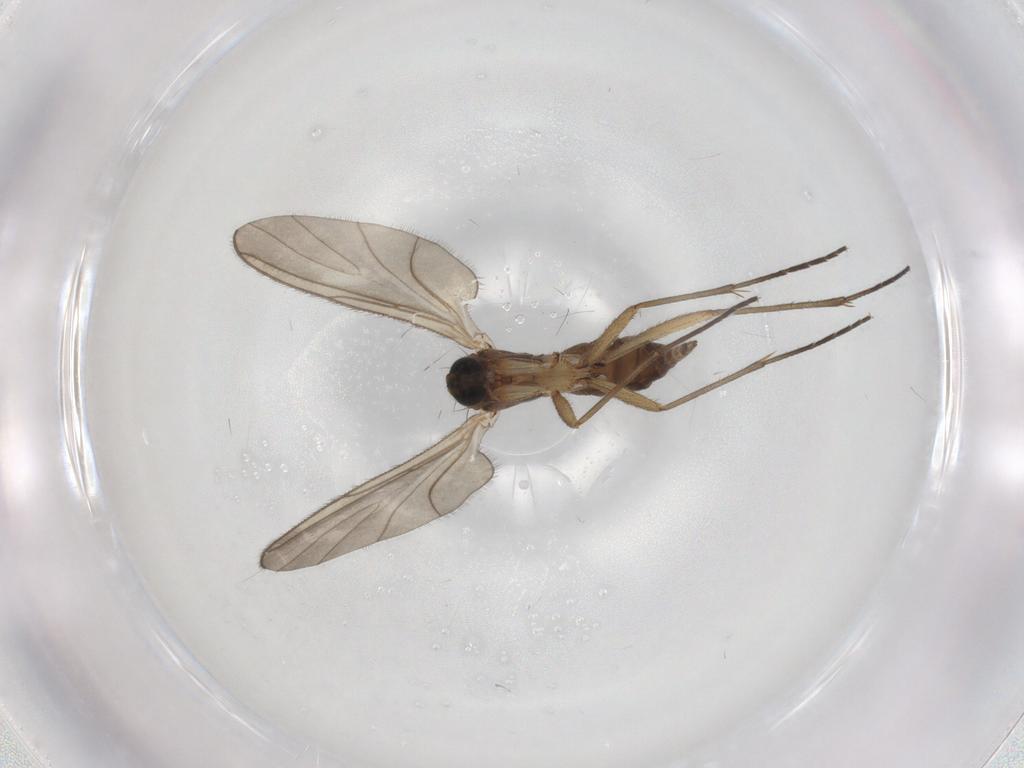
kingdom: Animalia
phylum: Arthropoda
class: Insecta
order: Diptera
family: Sciaridae
